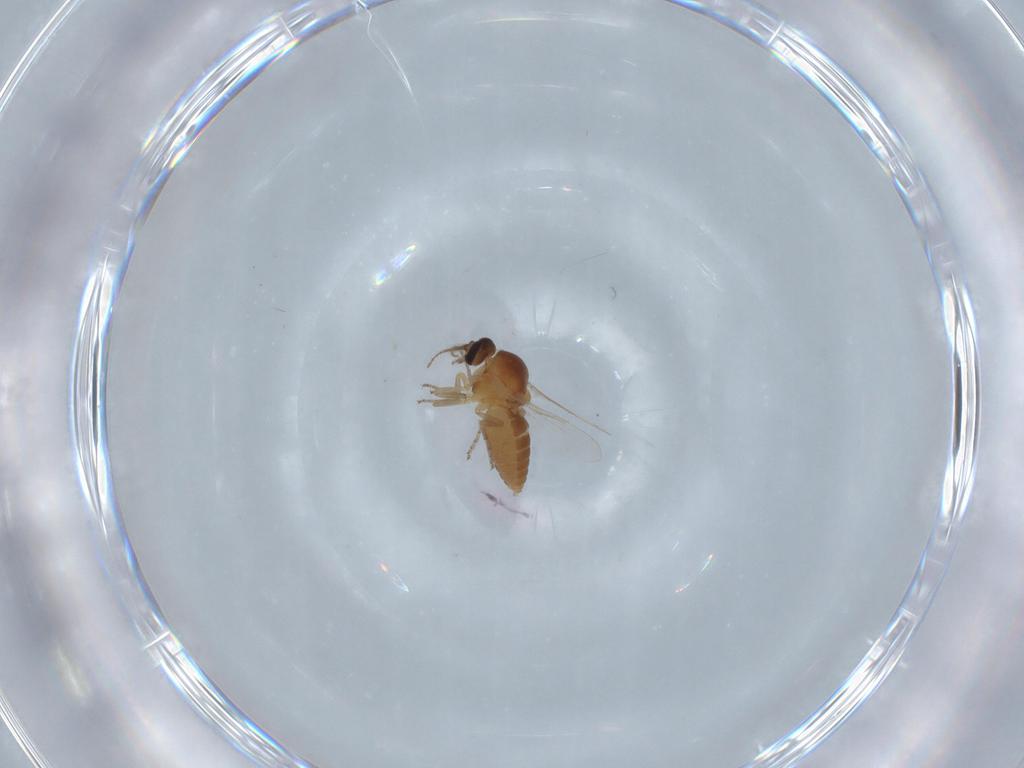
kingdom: Animalia
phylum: Arthropoda
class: Insecta
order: Diptera
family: Ceratopogonidae
